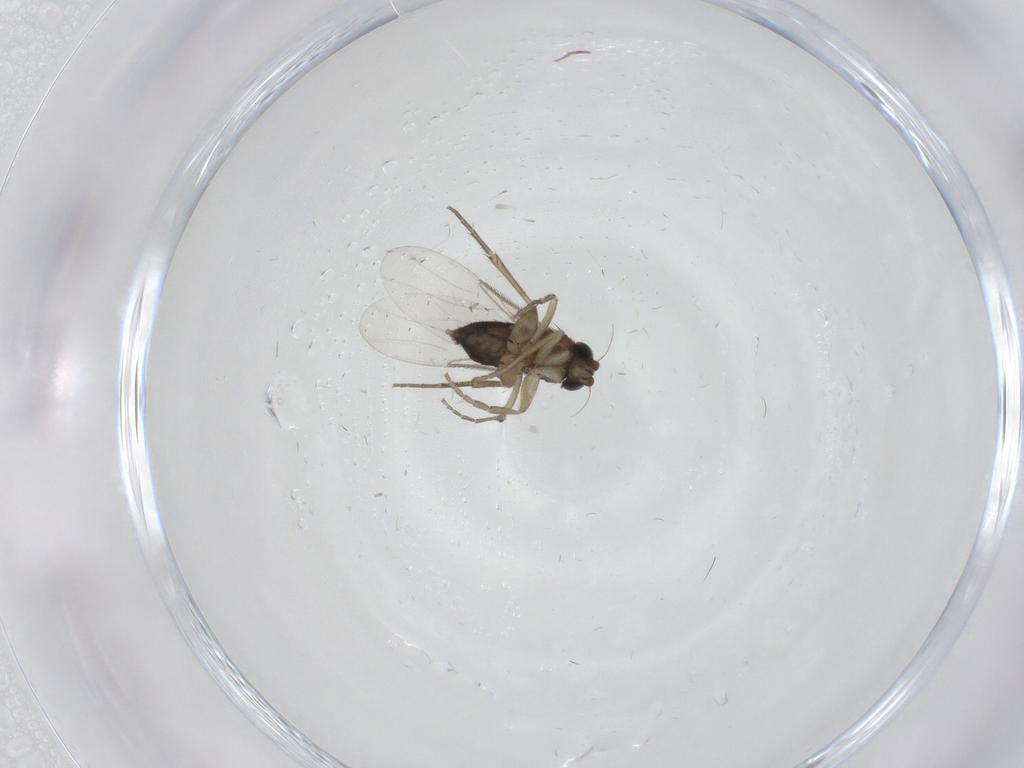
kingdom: Animalia
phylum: Arthropoda
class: Insecta
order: Diptera
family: Phoridae
